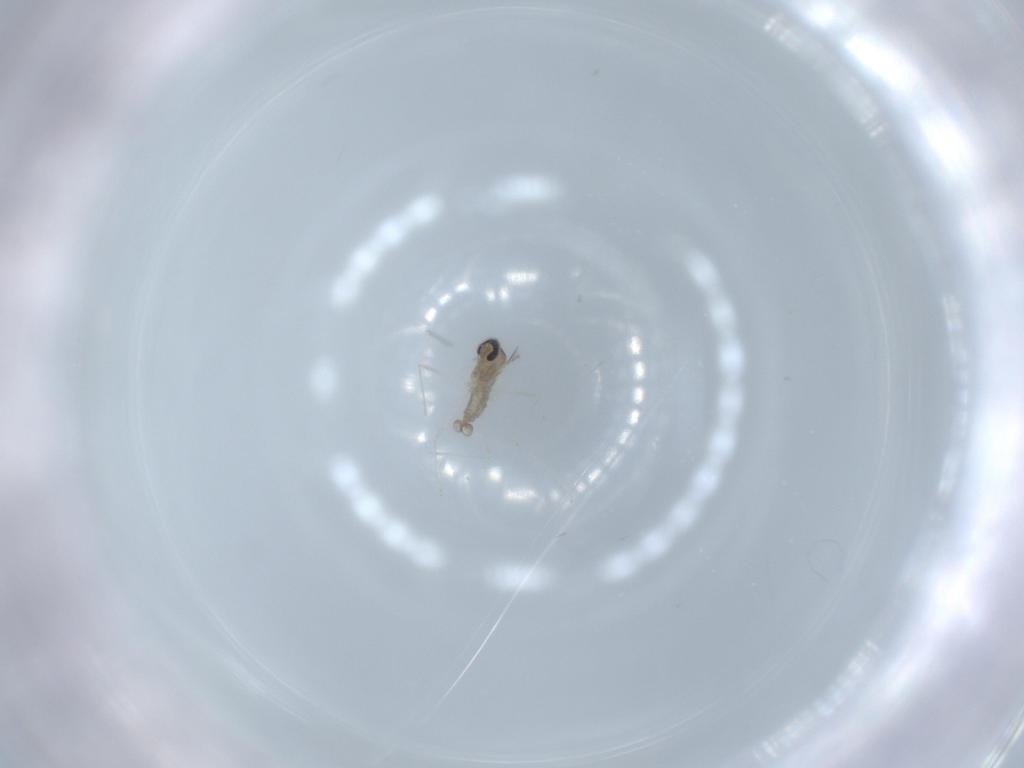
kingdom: Animalia
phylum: Arthropoda
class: Insecta
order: Diptera
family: Cecidomyiidae
